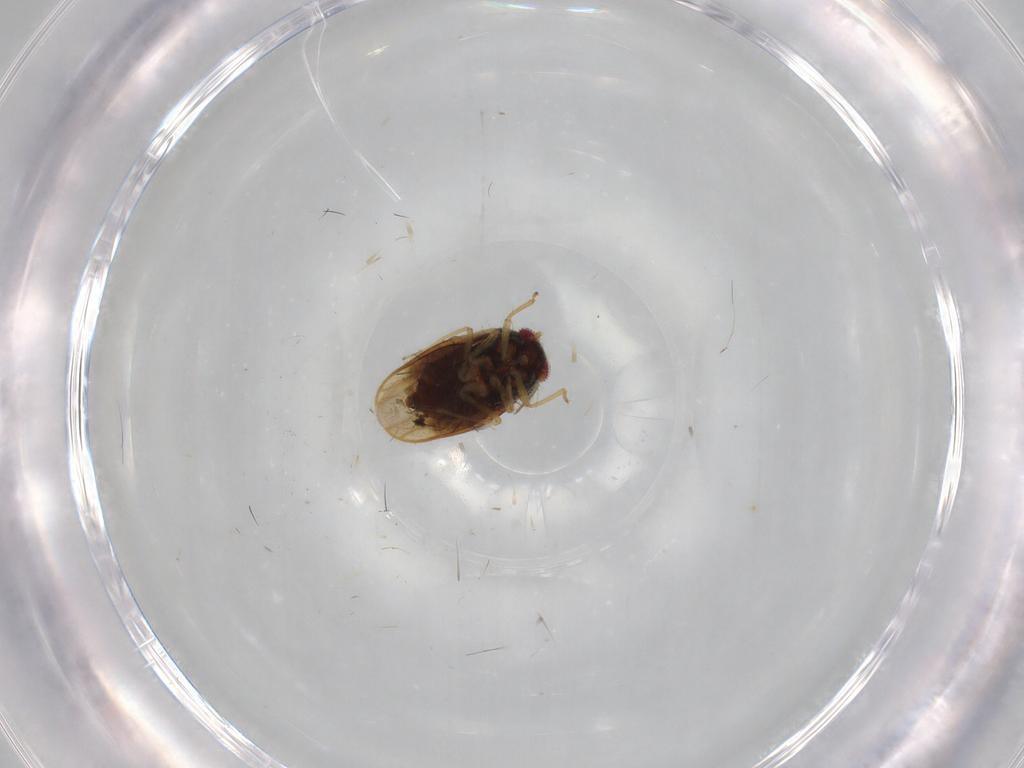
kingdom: Animalia
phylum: Arthropoda
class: Insecta
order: Hemiptera
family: Schizopteridae
